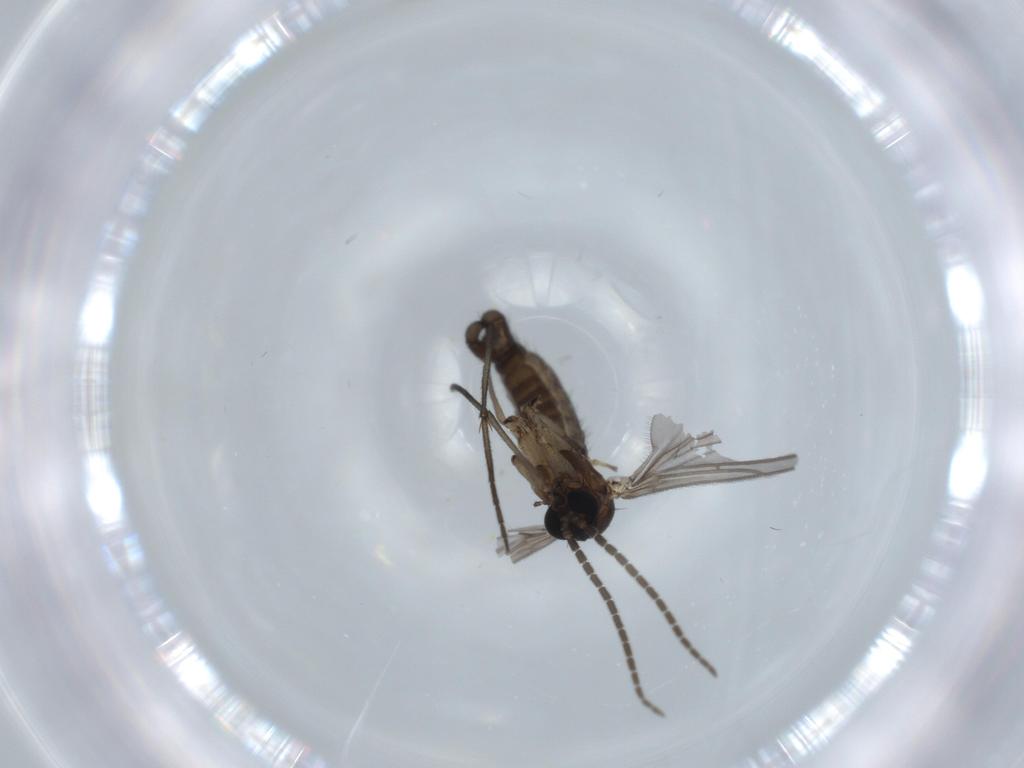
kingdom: Animalia
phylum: Arthropoda
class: Insecta
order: Diptera
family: Sciaridae
